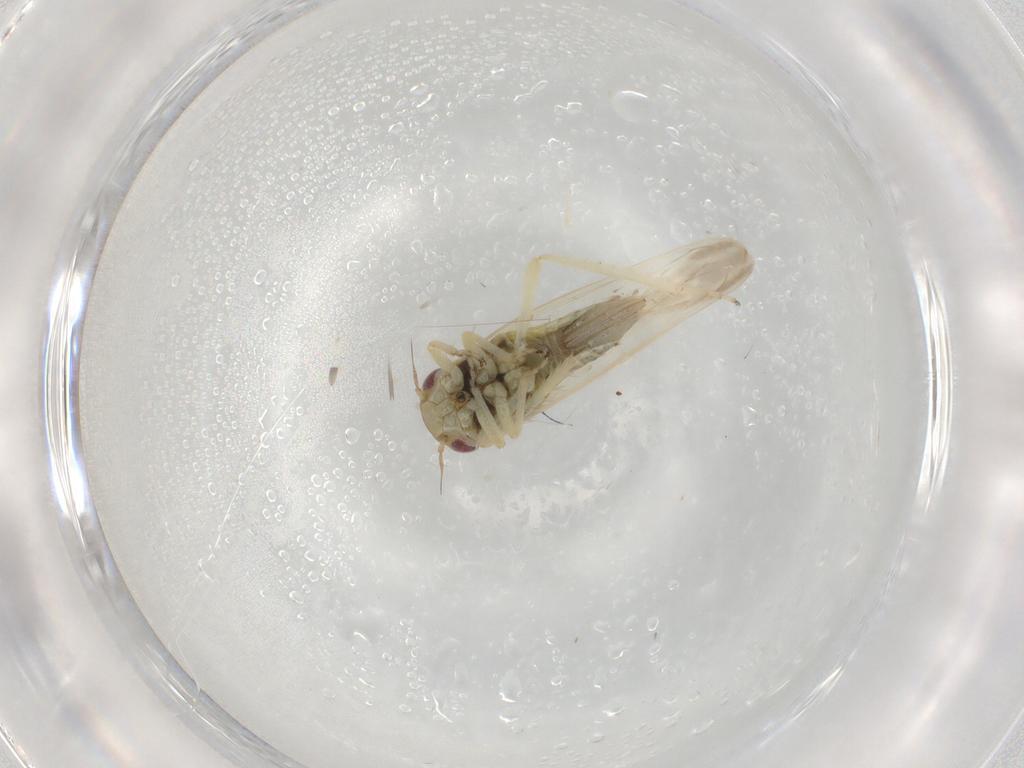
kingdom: Animalia
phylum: Arthropoda
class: Insecta
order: Hemiptera
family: Cicadellidae
